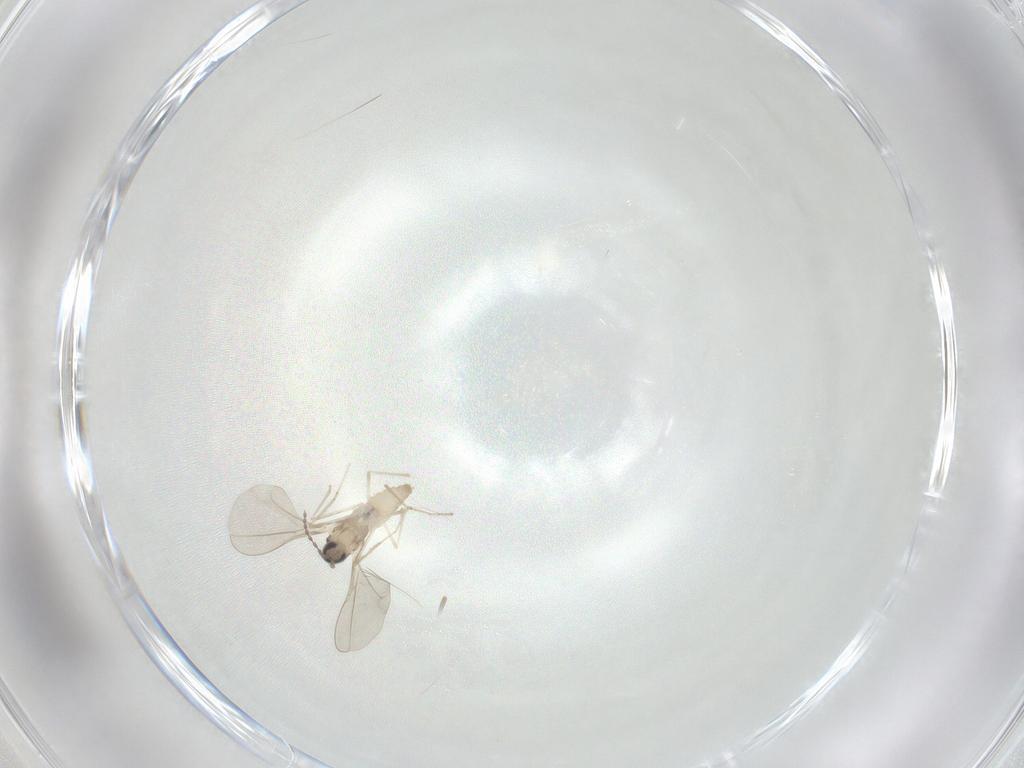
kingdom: Animalia
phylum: Arthropoda
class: Insecta
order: Diptera
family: Cecidomyiidae
